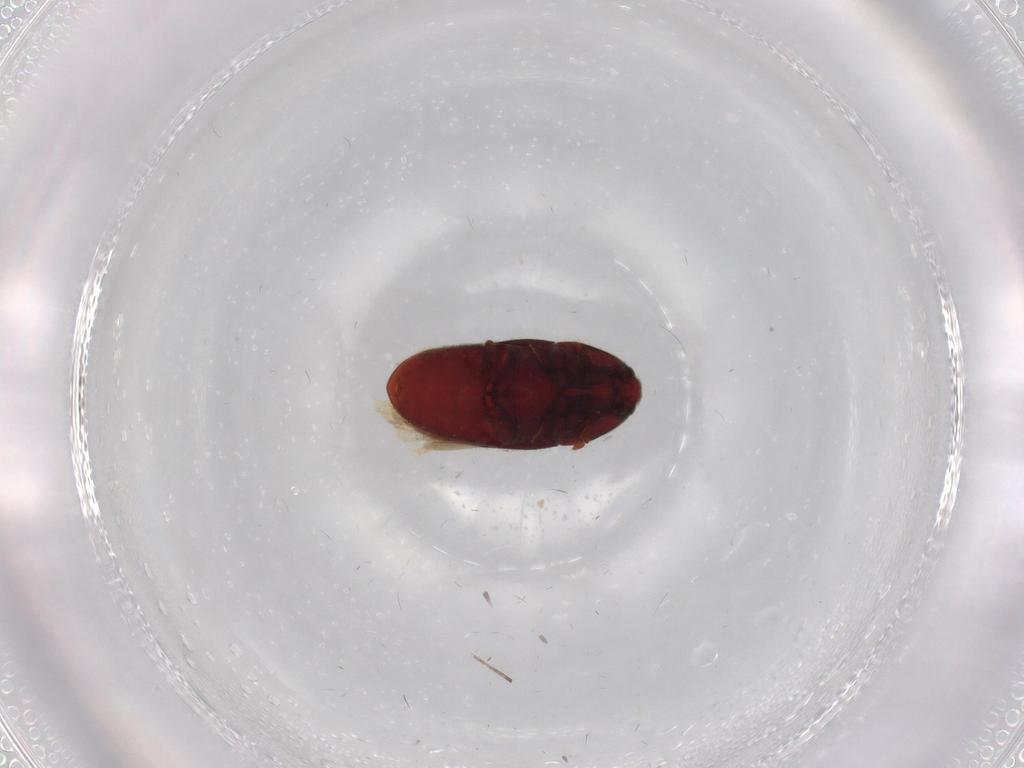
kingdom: Animalia
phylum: Arthropoda
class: Insecta
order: Coleoptera
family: Throscidae
